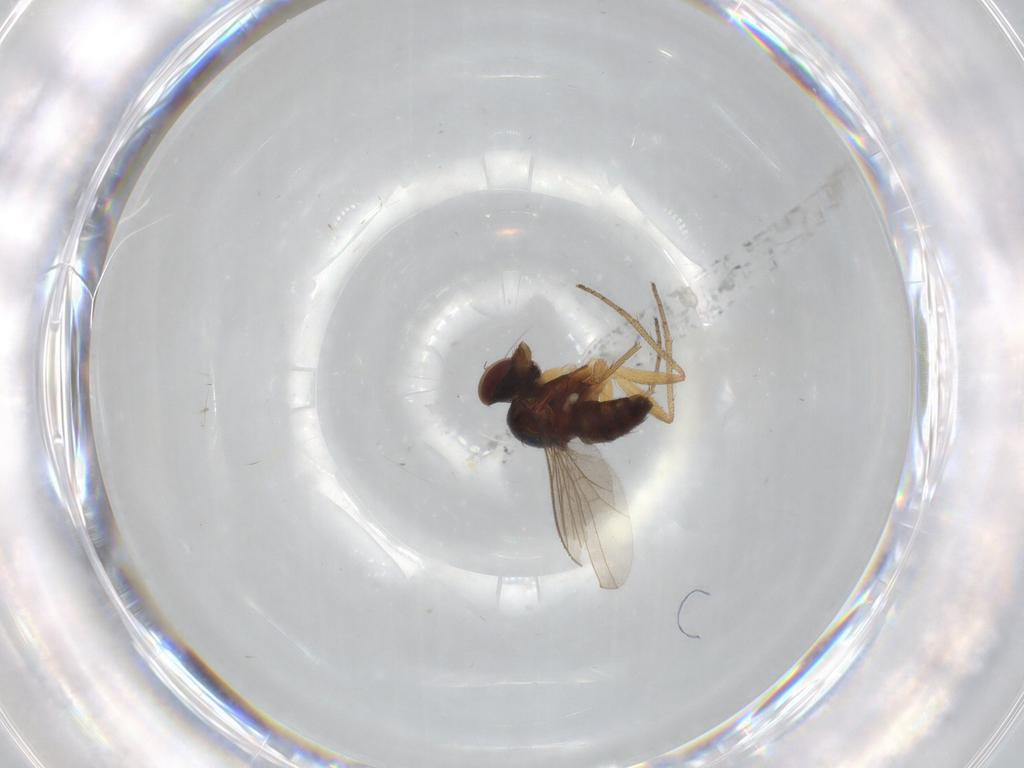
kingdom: Animalia
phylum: Arthropoda
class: Insecta
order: Diptera
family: Dolichopodidae
